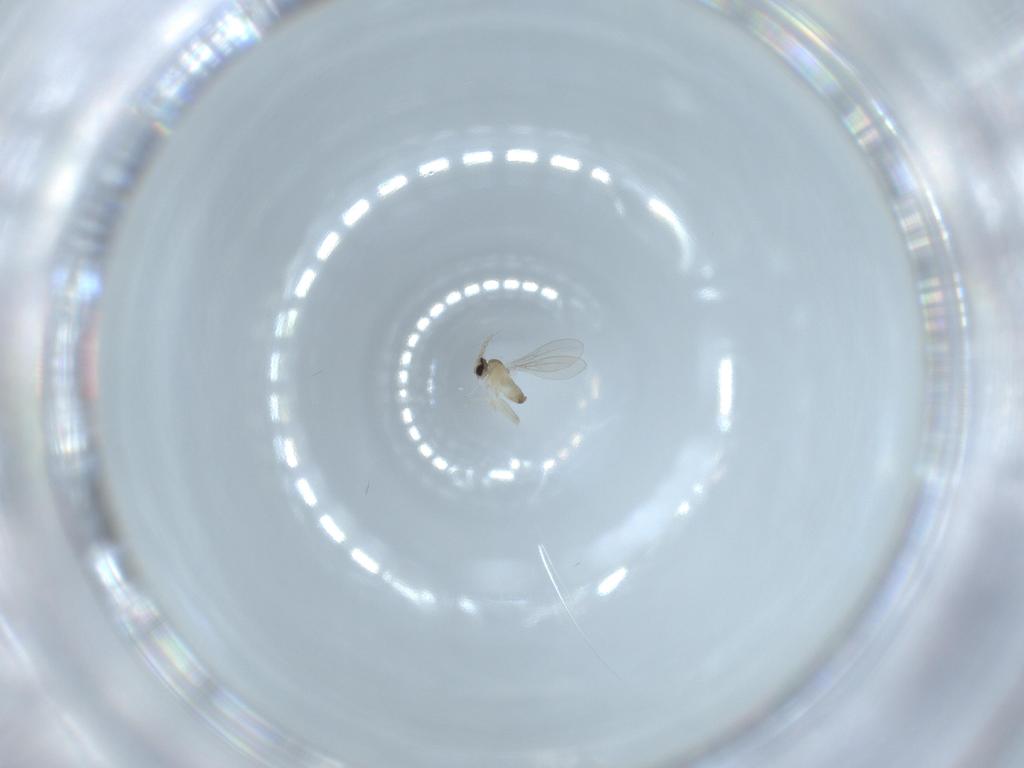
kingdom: Animalia
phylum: Arthropoda
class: Insecta
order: Diptera
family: Cecidomyiidae
